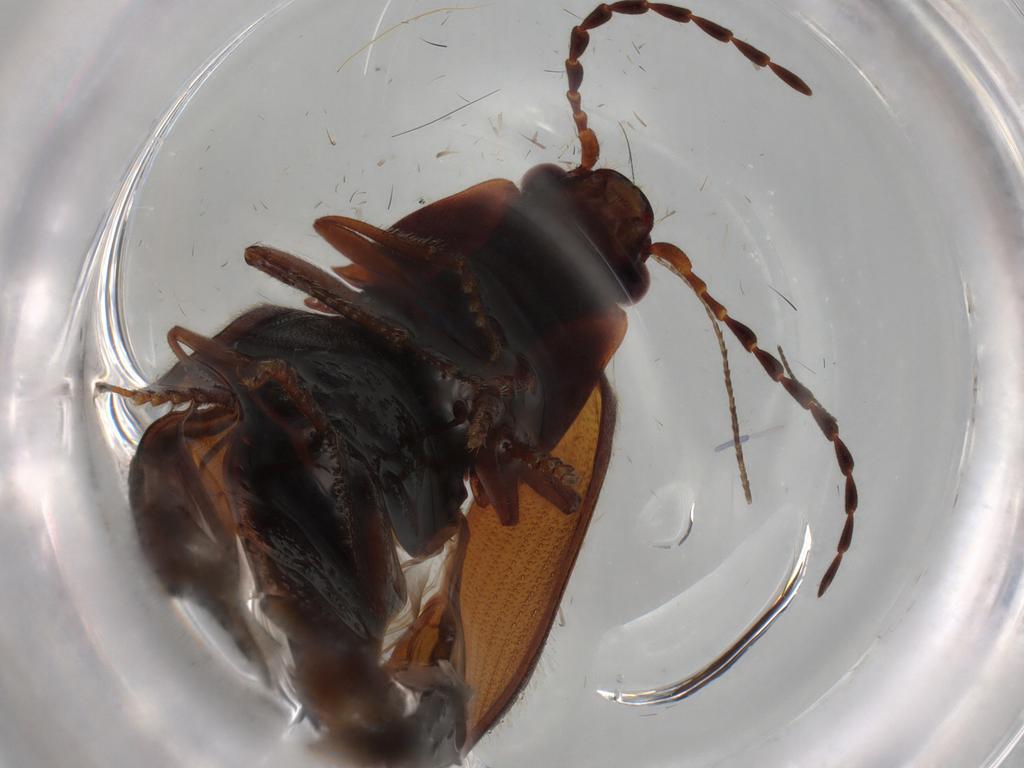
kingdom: Animalia
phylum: Arthropoda
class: Insecta
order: Coleoptera
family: Elateridae
